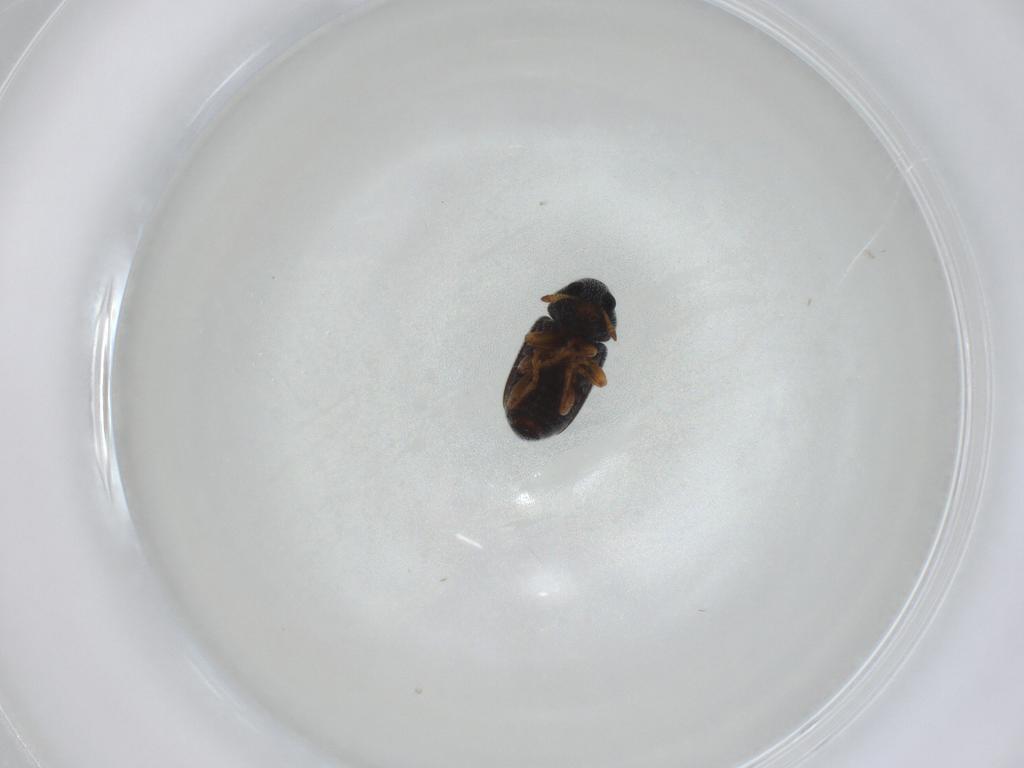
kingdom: Animalia
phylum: Arthropoda
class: Insecta
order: Coleoptera
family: Anthribidae
